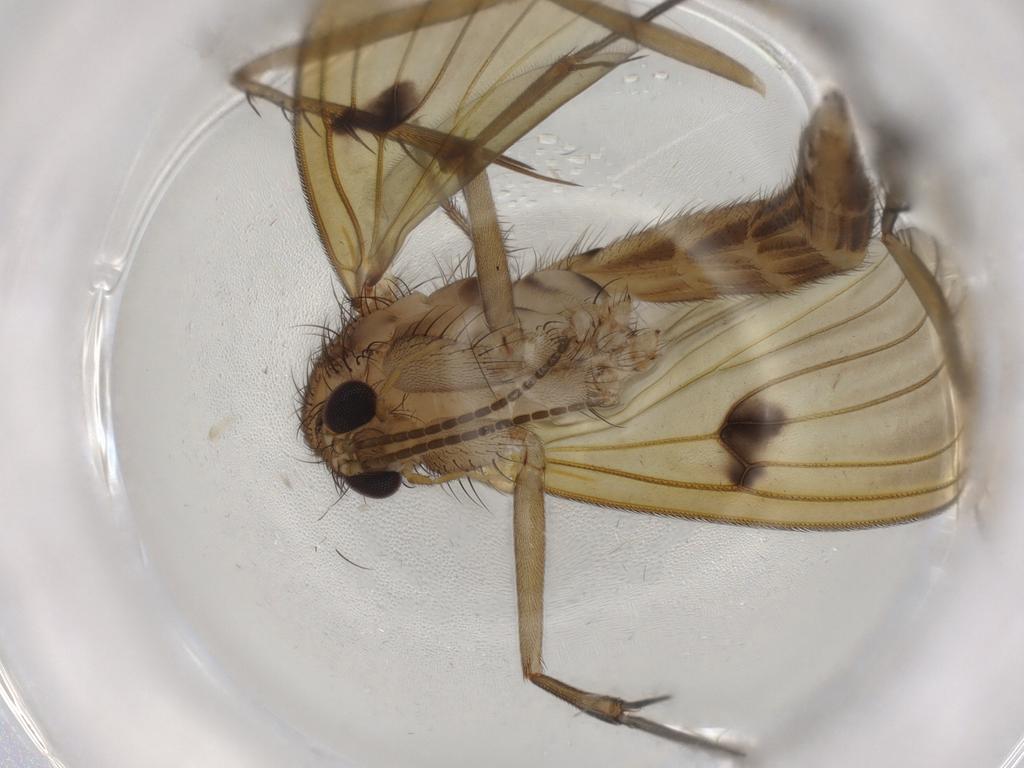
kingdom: Animalia
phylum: Arthropoda
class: Insecta
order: Diptera
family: Mycetophilidae
